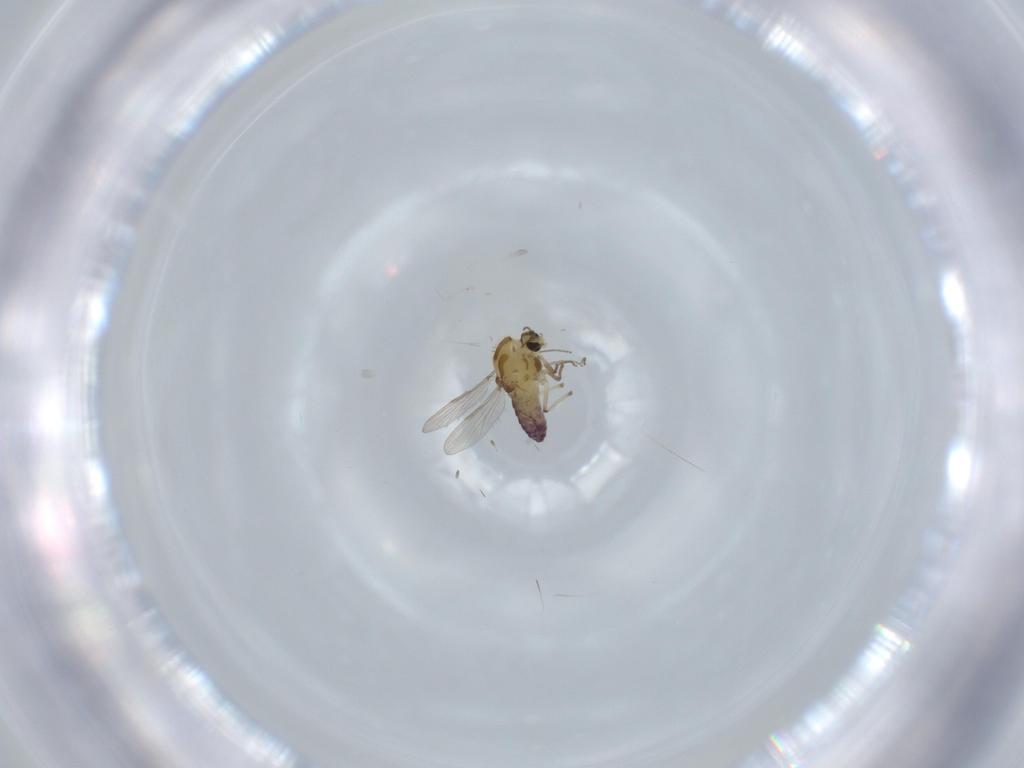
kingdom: Animalia
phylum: Arthropoda
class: Insecta
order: Diptera
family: Chironomidae
